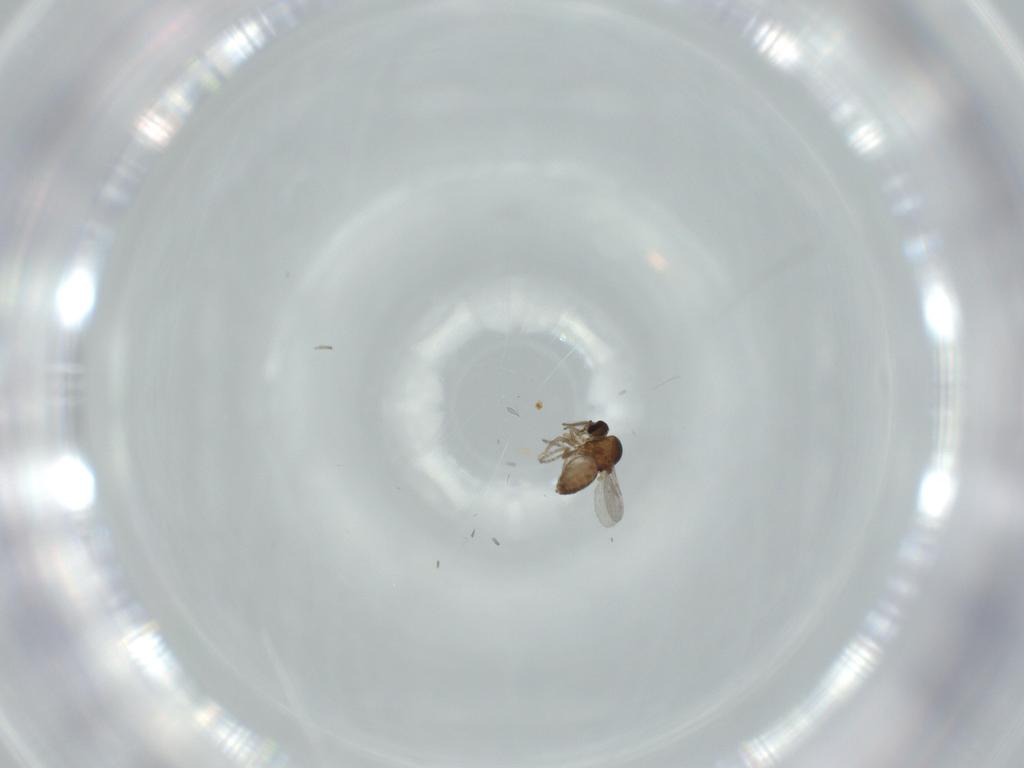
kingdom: Animalia
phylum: Arthropoda
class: Insecta
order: Diptera
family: Ceratopogonidae
